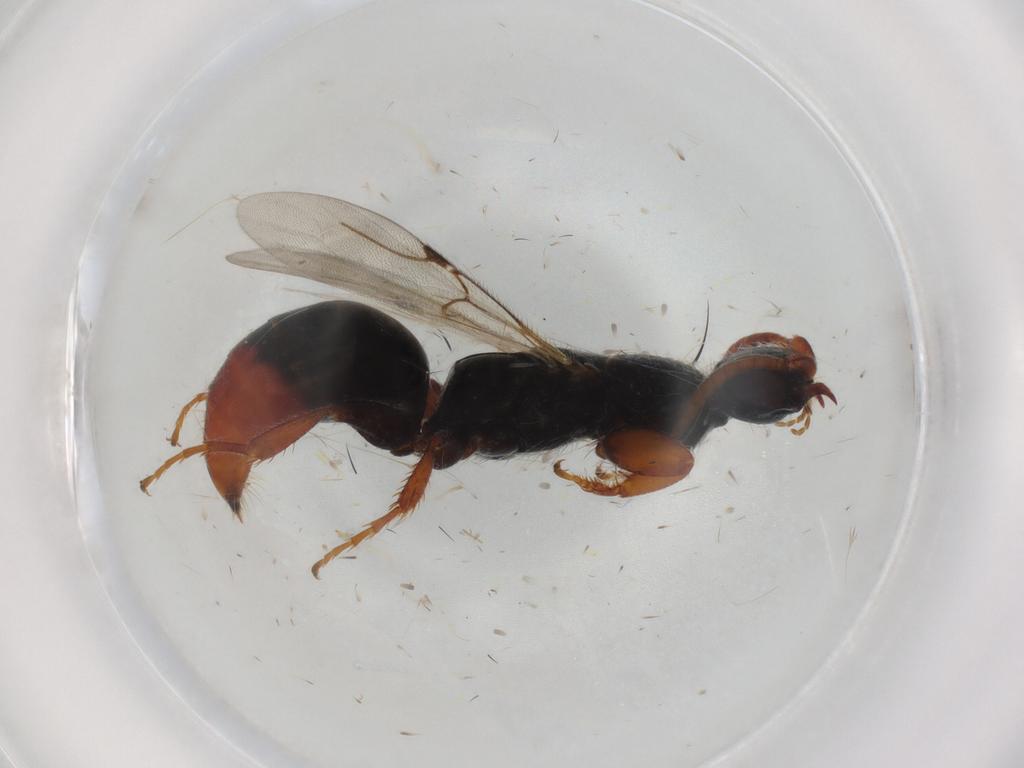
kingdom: Animalia
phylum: Arthropoda
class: Insecta
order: Hymenoptera
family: Bethylidae
